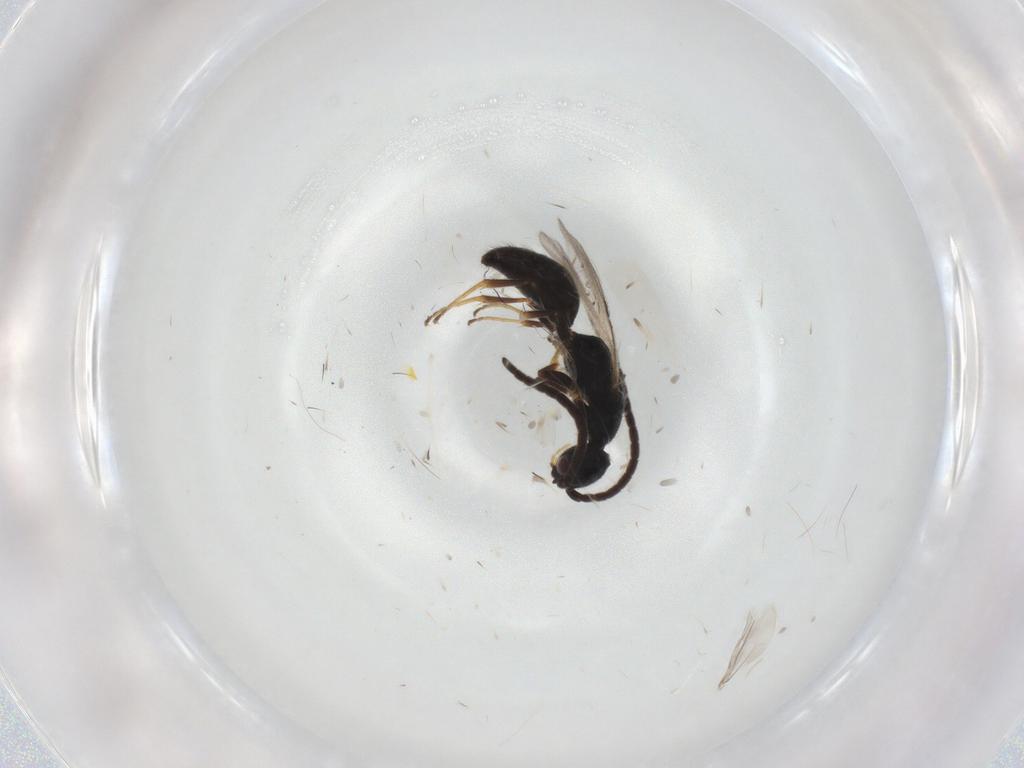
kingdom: Animalia
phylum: Arthropoda
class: Insecta
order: Hymenoptera
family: Bethylidae
